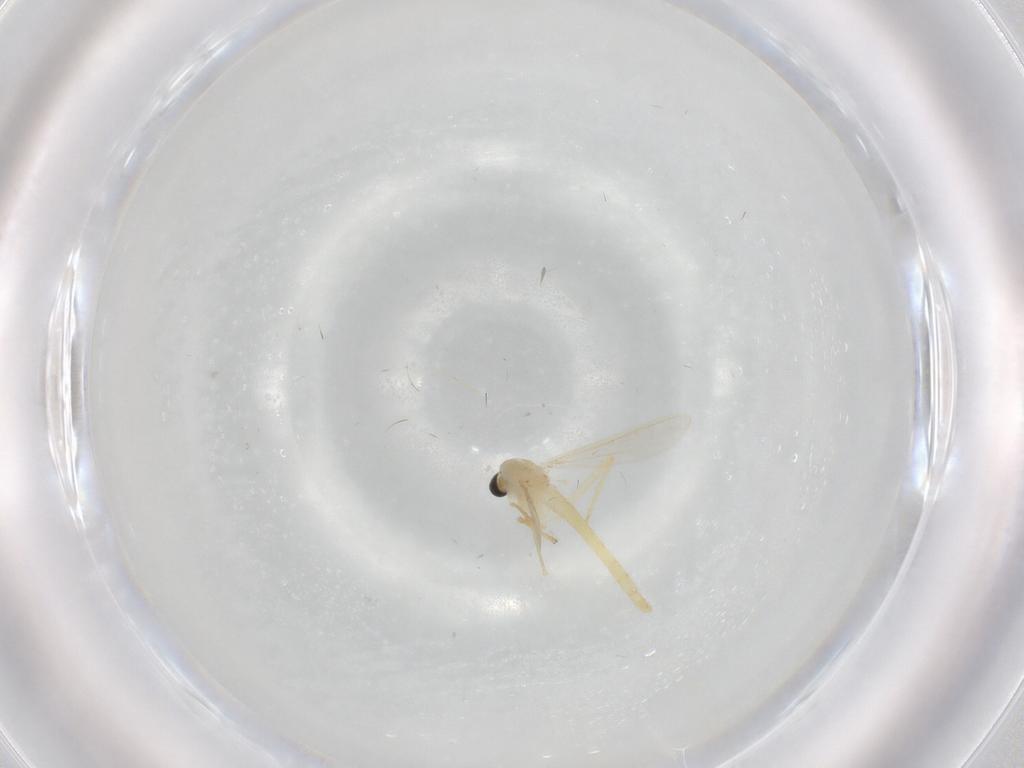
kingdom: Animalia
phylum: Arthropoda
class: Insecta
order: Diptera
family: Chironomidae
